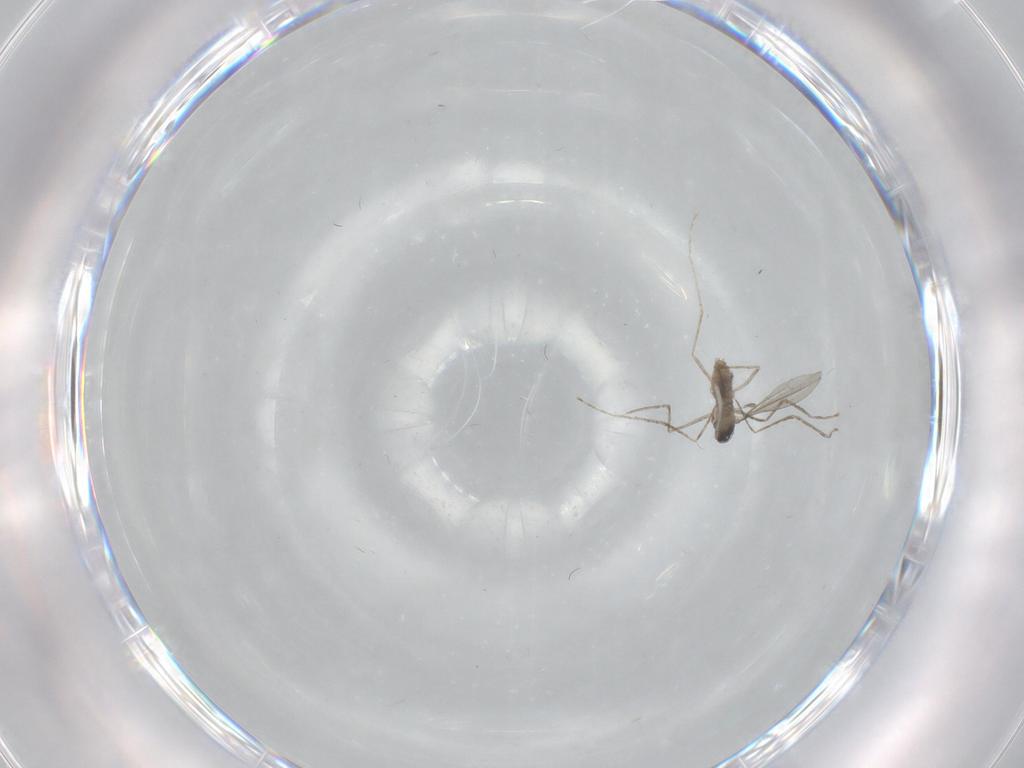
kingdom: Animalia
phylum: Arthropoda
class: Insecta
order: Diptera
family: Cecidomyiidae
